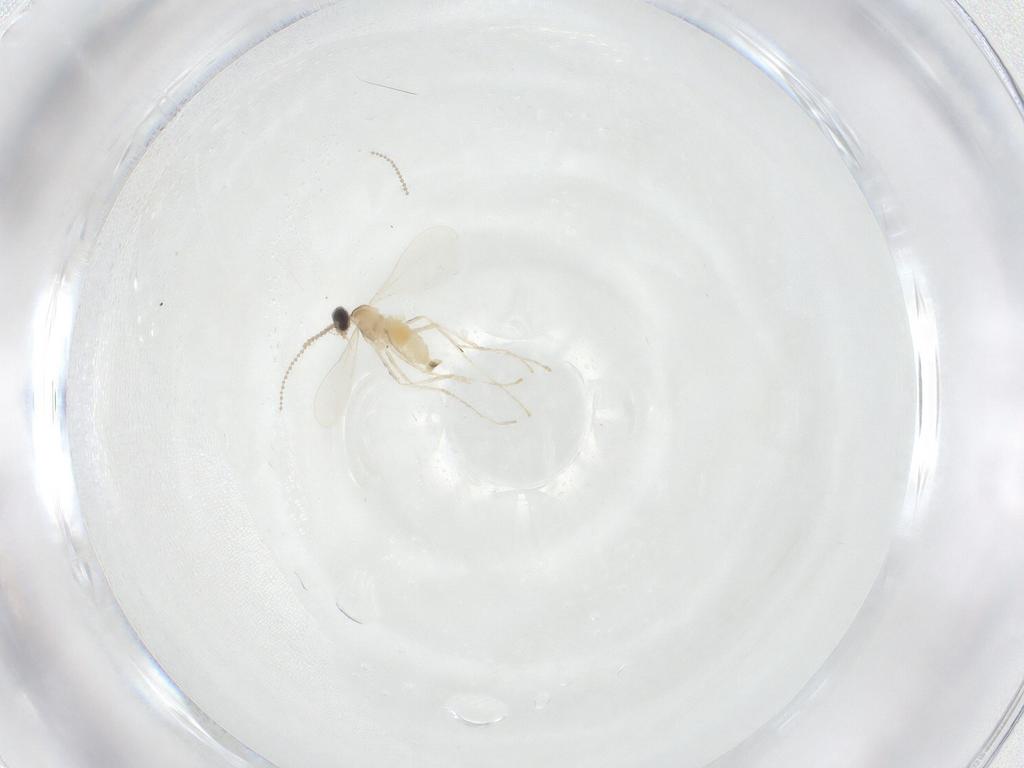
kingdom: Animalia
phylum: Arthropoda
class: Insecta
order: Diptera
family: Cecidomyiidae
